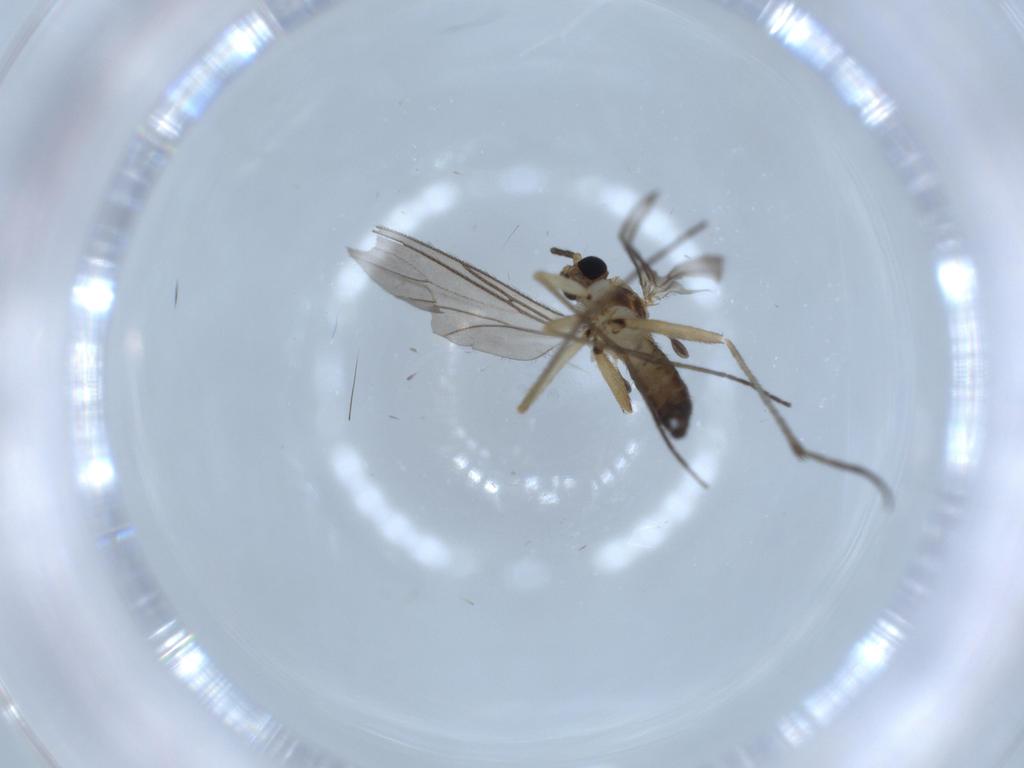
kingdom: Animalia
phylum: Arthropoda
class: Insecta
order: Diptera
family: Sciaridae
